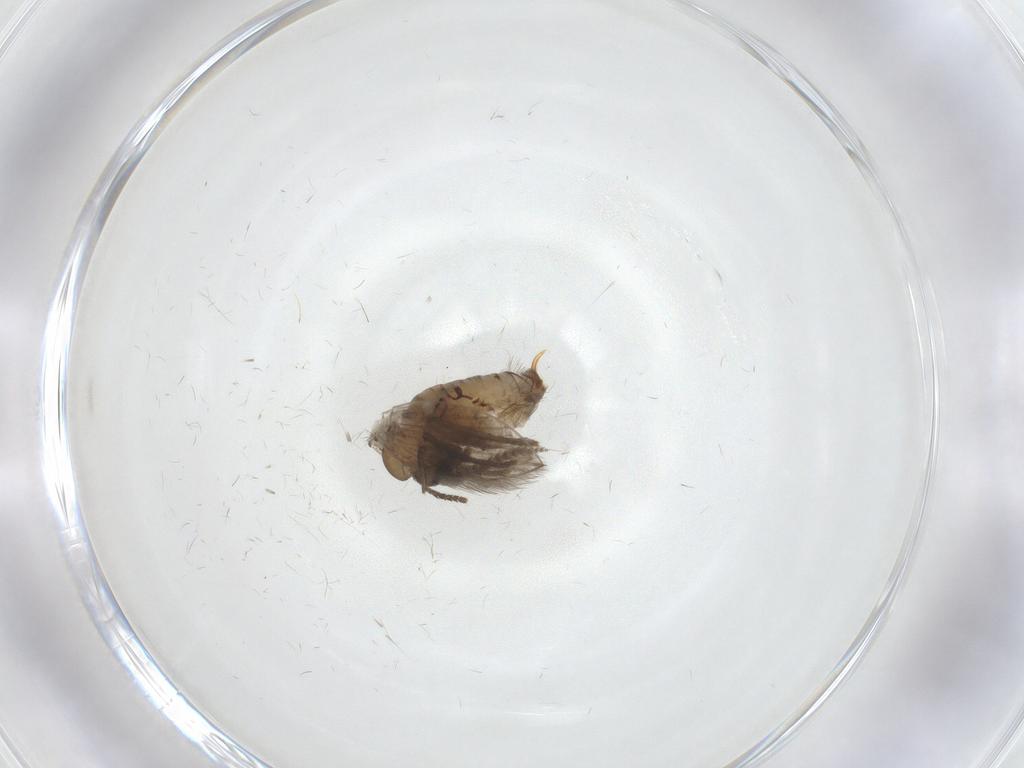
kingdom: Animalia
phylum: Arthropoda
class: Insecta
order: Diptera
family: Psychodidae
